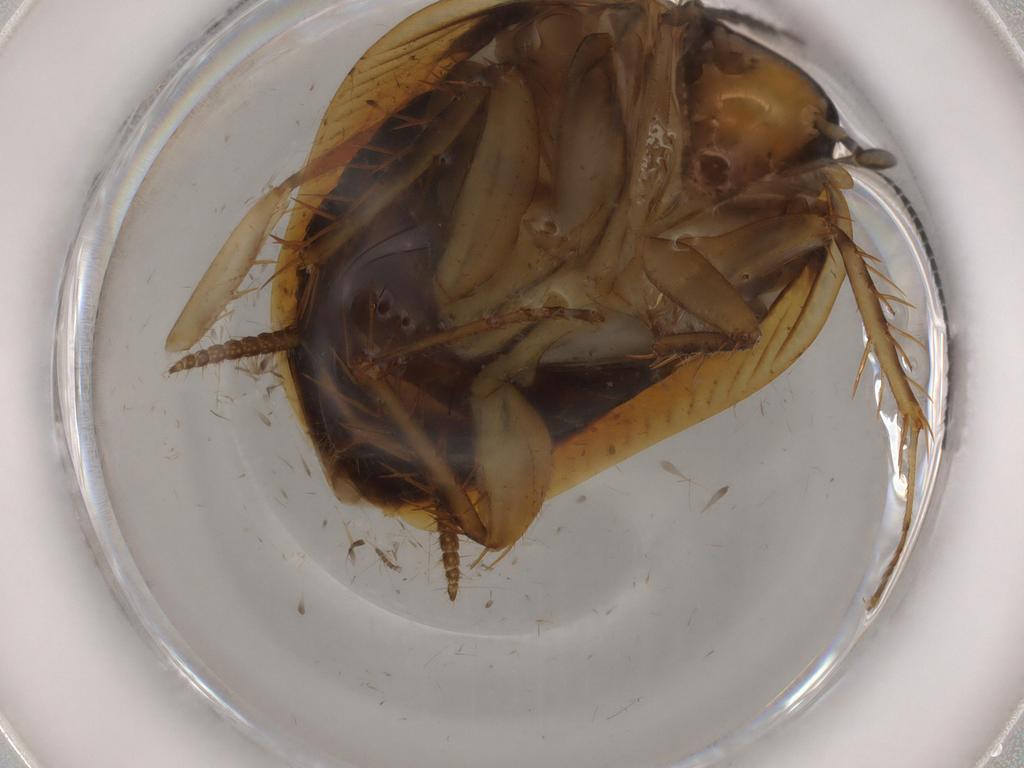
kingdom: Animalia
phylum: Arthropoda
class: Insecta
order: Blattodea
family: Ectobiidae
